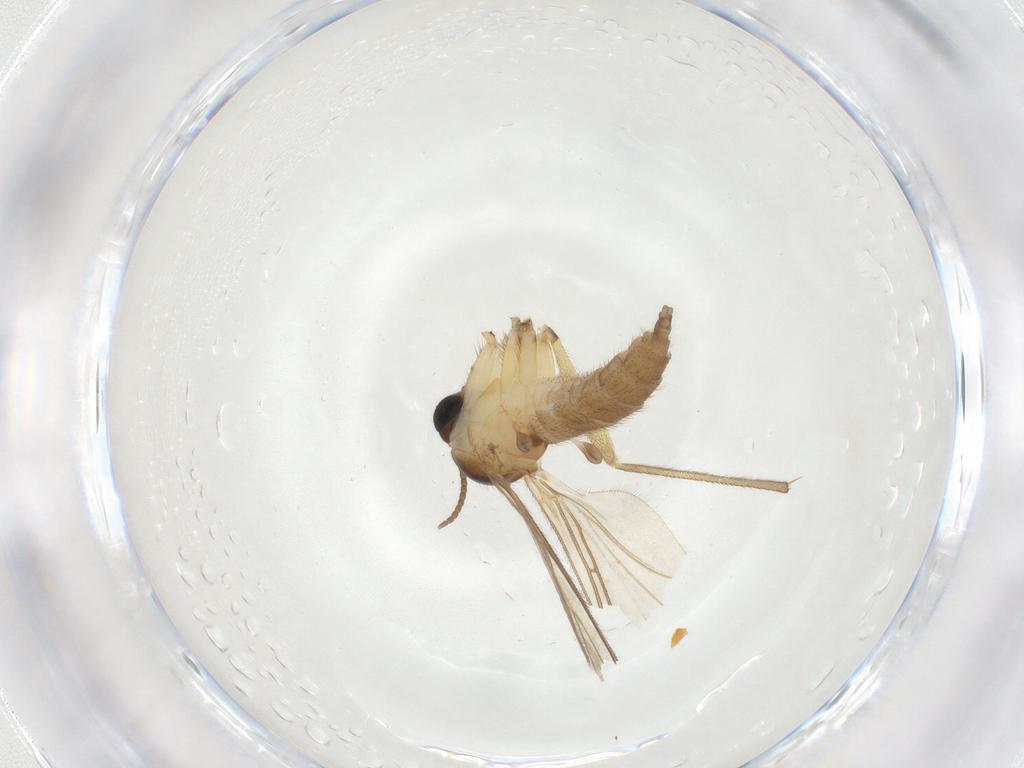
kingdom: Animalia
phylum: Arthropoda
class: Insecta
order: Diptera
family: Sciaridae
